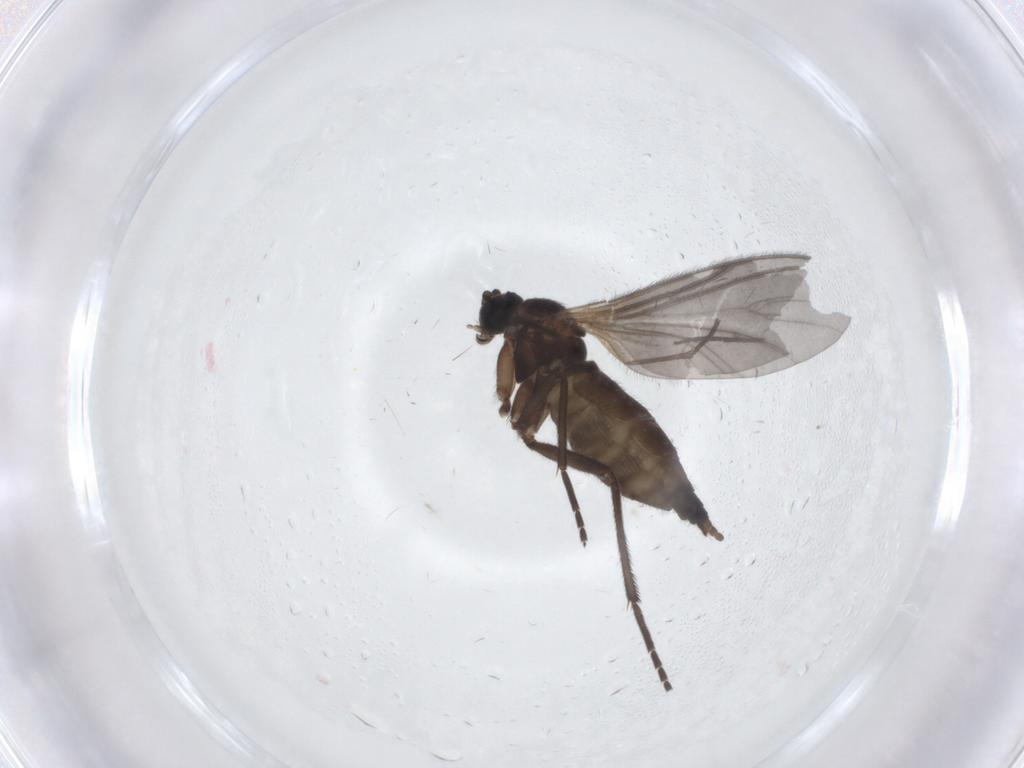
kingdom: Animalia
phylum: Arthropoda
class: Insecta
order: Diptera
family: Sciaridae
